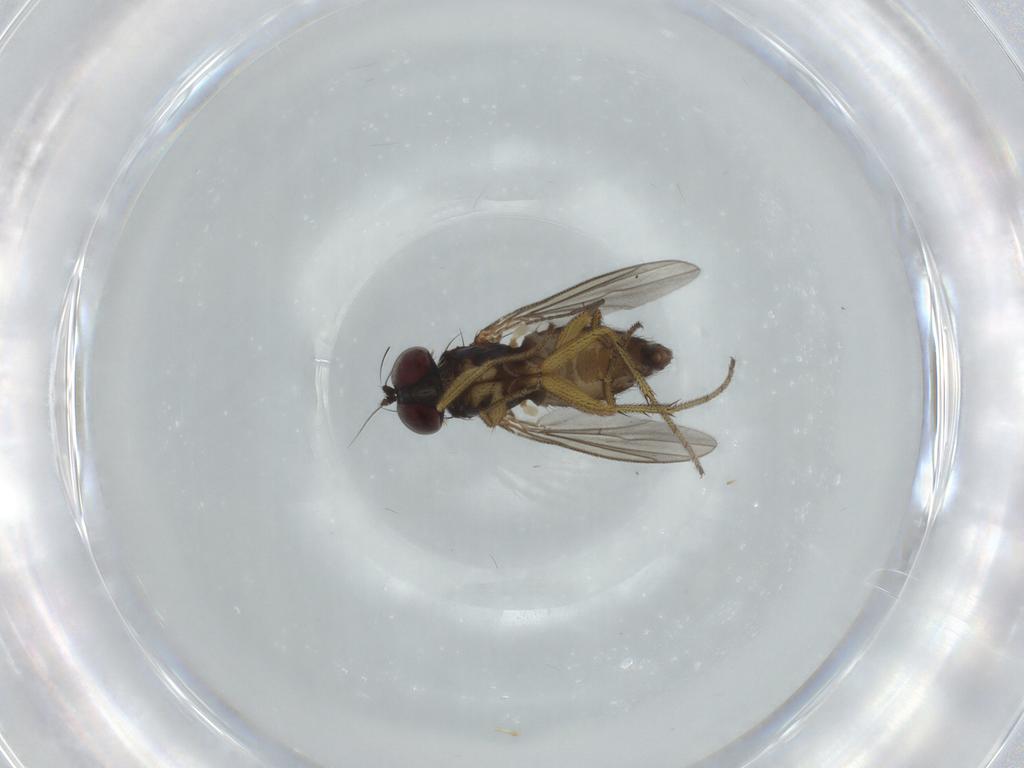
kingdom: Animalia
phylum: Arthropoda
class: Insecta
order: Diptera
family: Dolichopodidae
